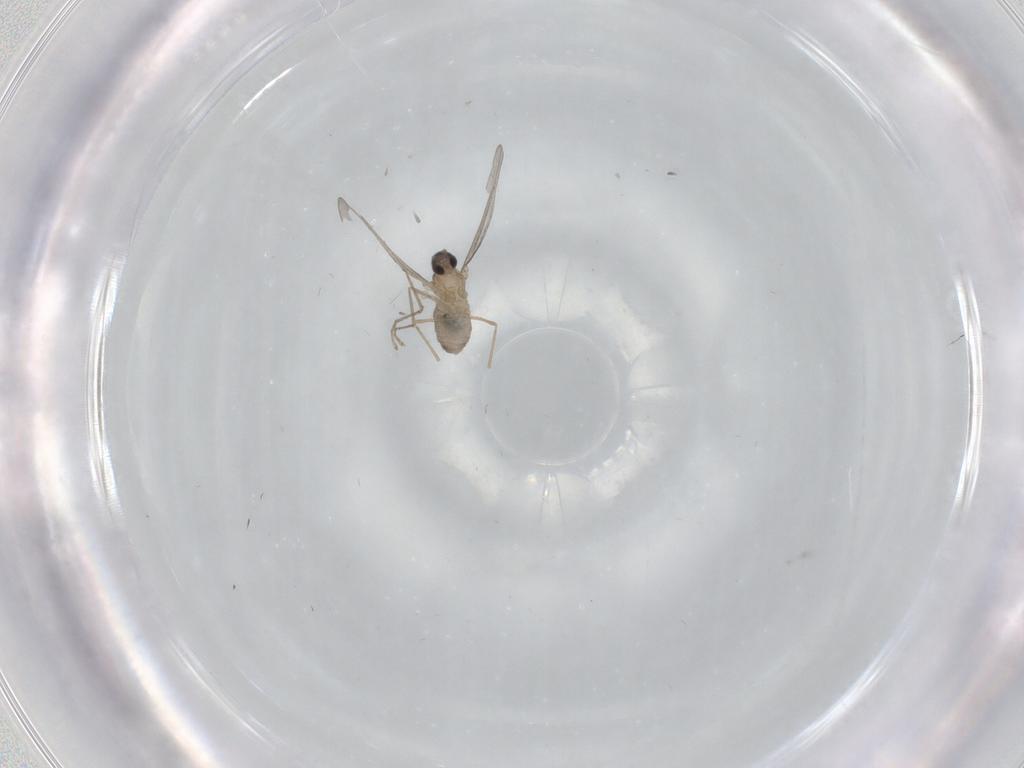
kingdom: Animalia
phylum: Arthropoda
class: Insecta
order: Diptera
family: Cecidomyiidae
